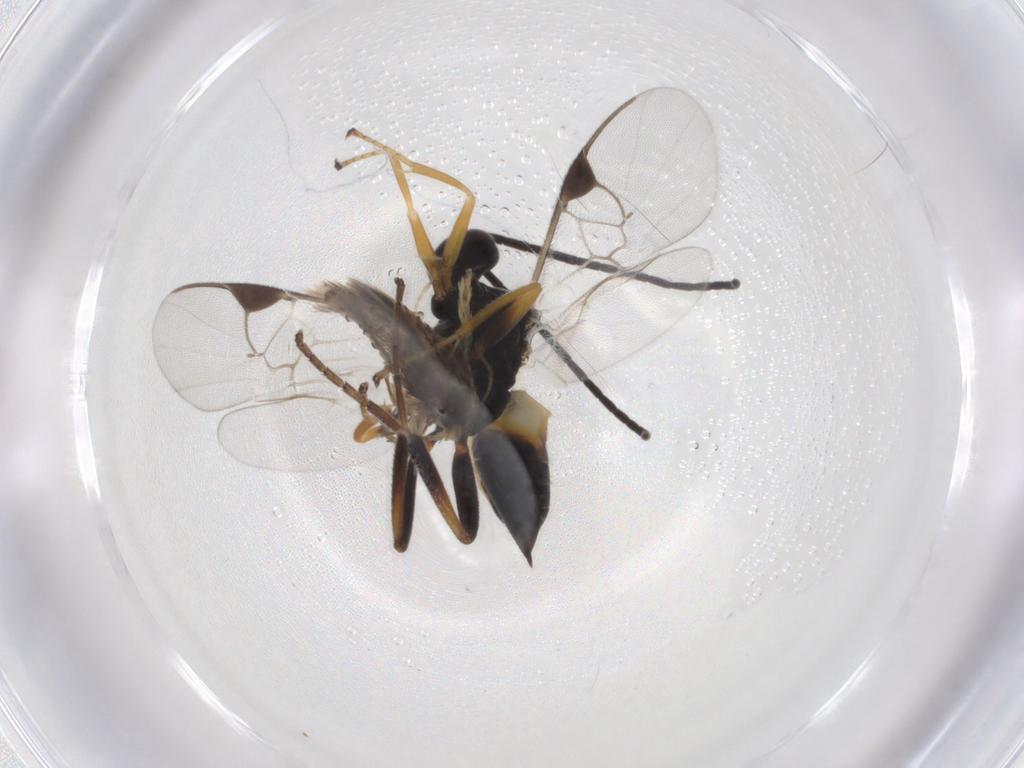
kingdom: Animalia
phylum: Arthropoda
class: Insecta
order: Hymenoptera
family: Braconidae
